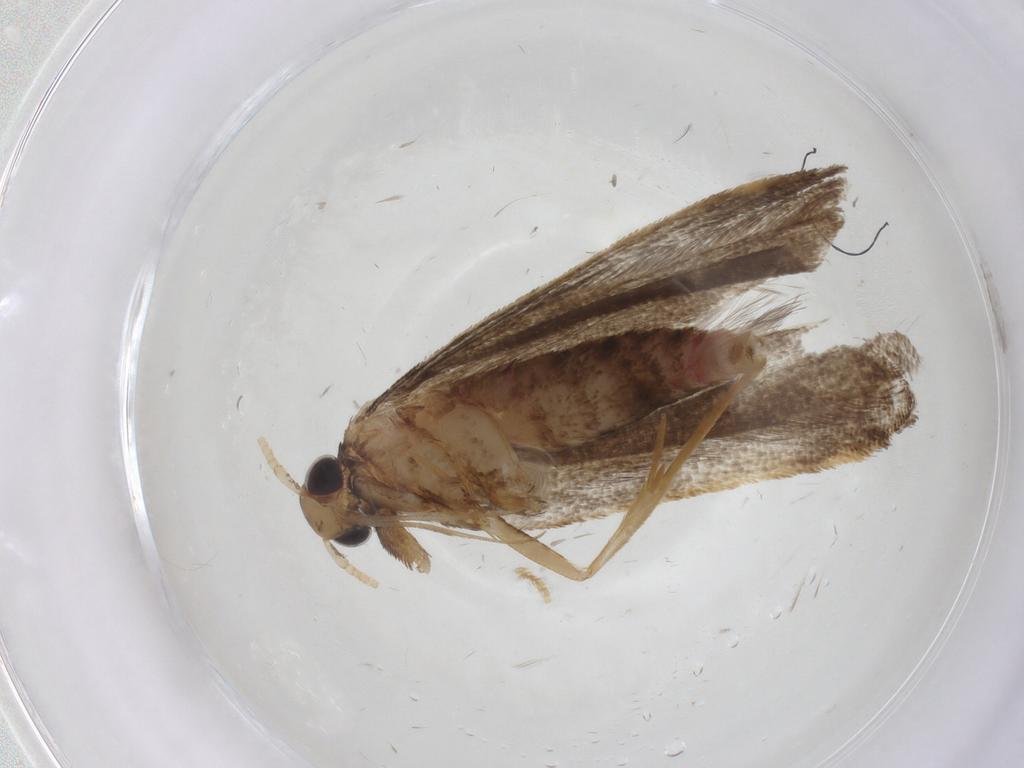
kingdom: Animalia
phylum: Arthropoda
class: Insecta
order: Lepidoptera
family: Lecithoceridae
